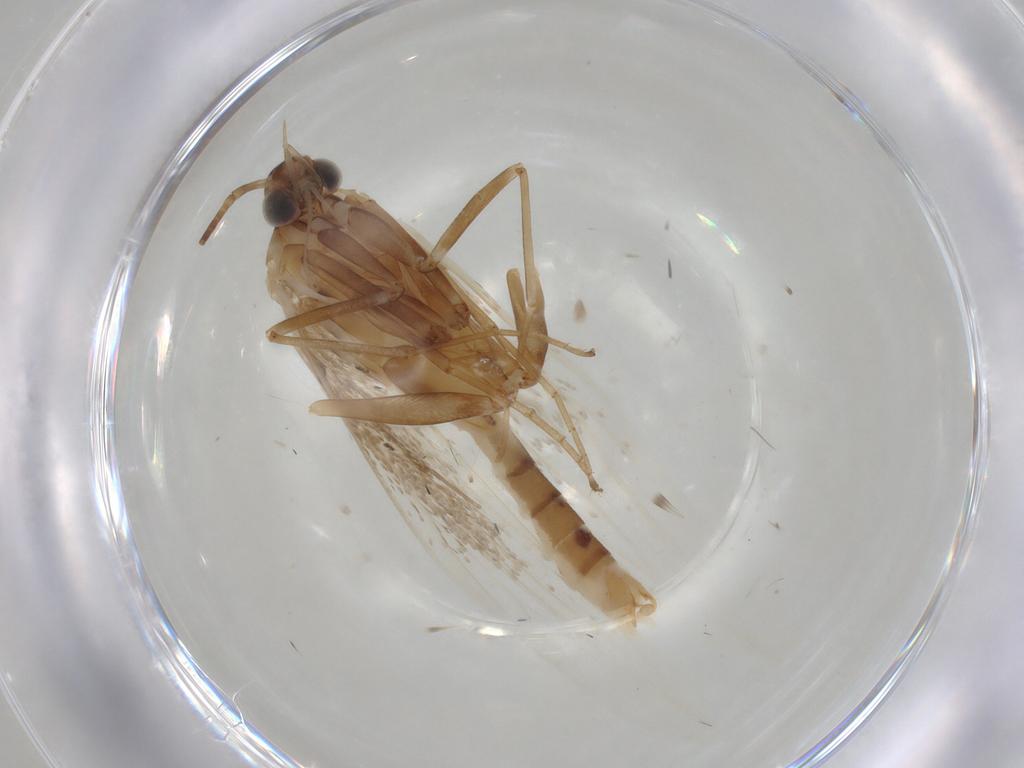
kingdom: Animalia
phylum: Arthropoda
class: Insecta
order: Lepidoptera
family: Coleophoridae
